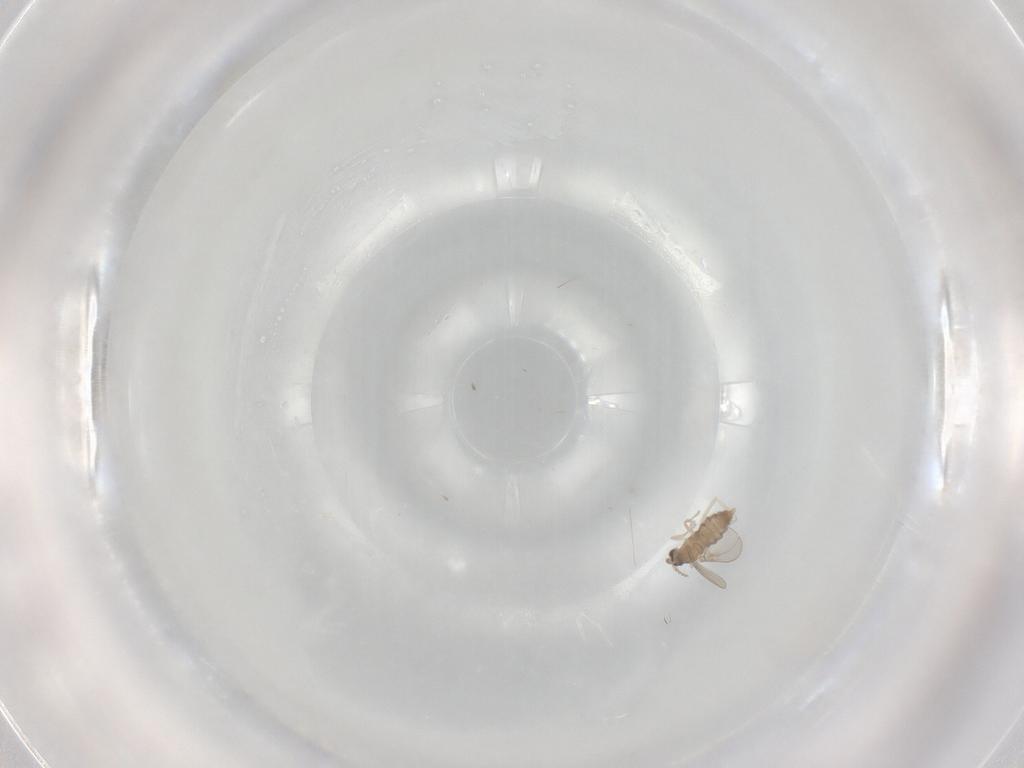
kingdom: Animalia
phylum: Arthropoda
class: Insecta
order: Diptera
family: Cecidomyiidae
